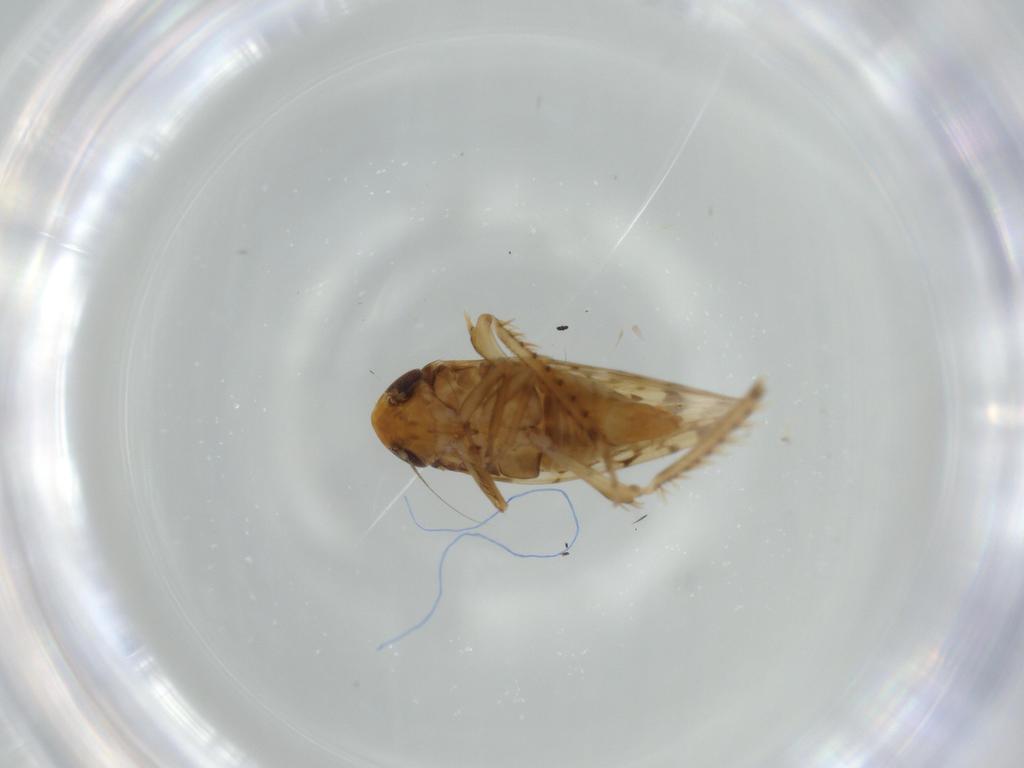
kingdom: Animalia
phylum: Arthropoda
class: Insecta
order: Hemiptera
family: Cicadellidae
